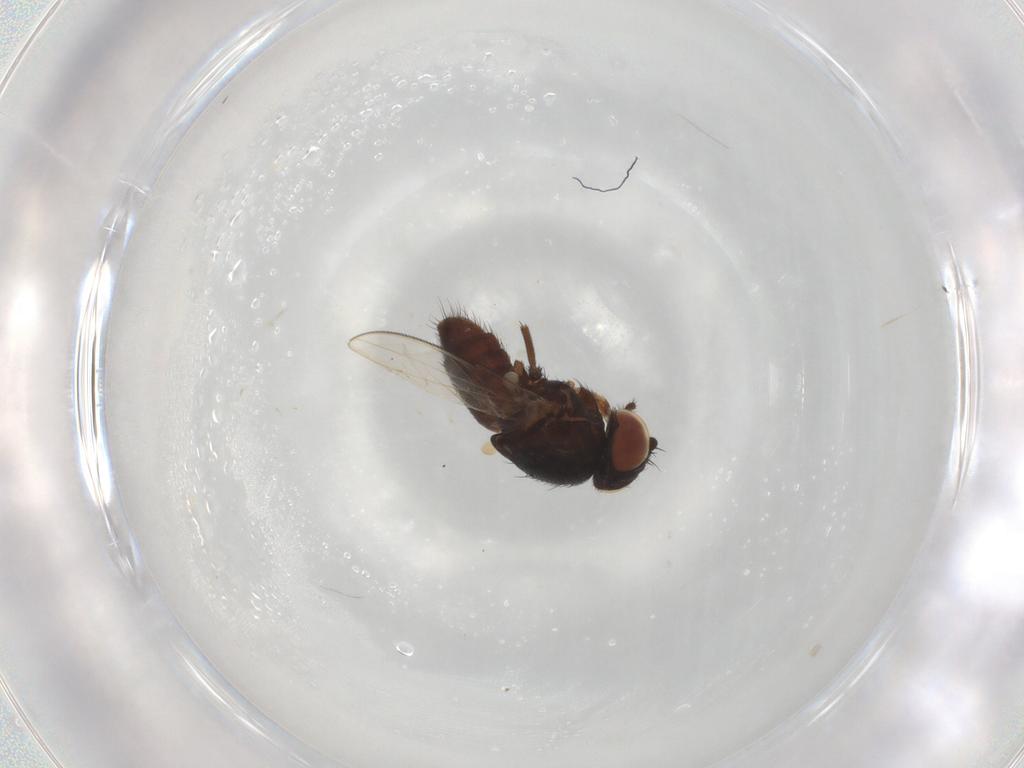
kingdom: Animalia
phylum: Arthropoda
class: Insecta
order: Diptera
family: Milichiidae
